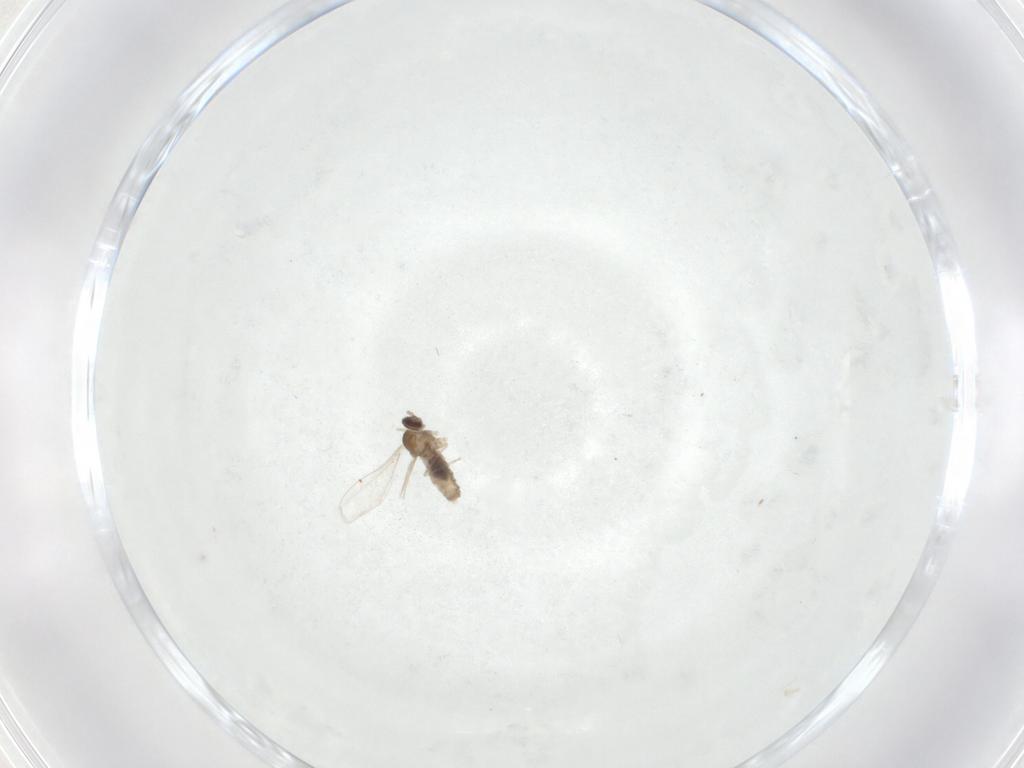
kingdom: Animalia
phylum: Arthropoda
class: Insecta
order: Diptera
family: Cecidomyiidae
